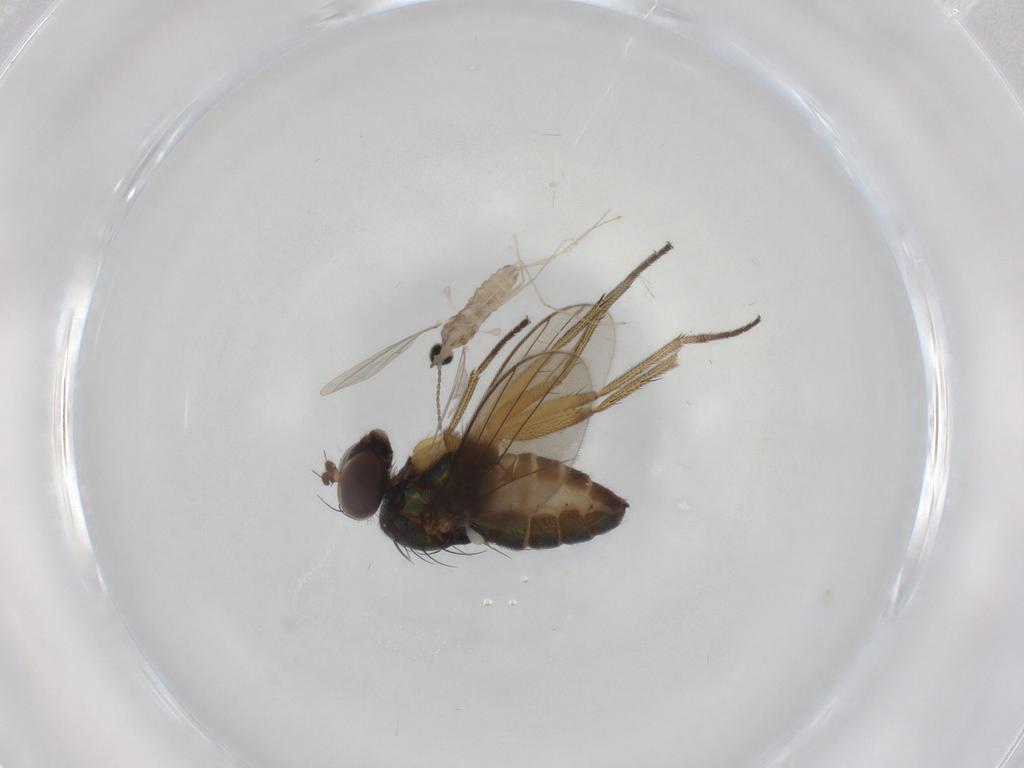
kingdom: Animalia
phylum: Arthropoda
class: Insecta
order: Diptera
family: Cecidomyiidae
